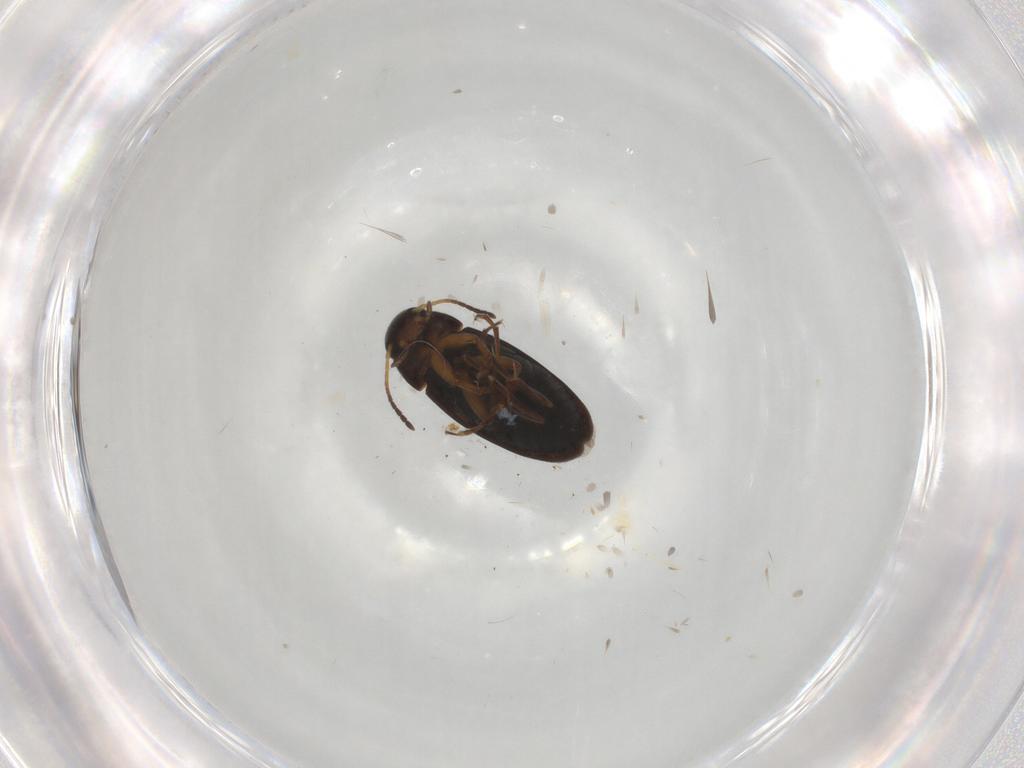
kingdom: Animalia
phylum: Arthropoda
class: Insecta
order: Coleoptera
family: Scraptiidae
